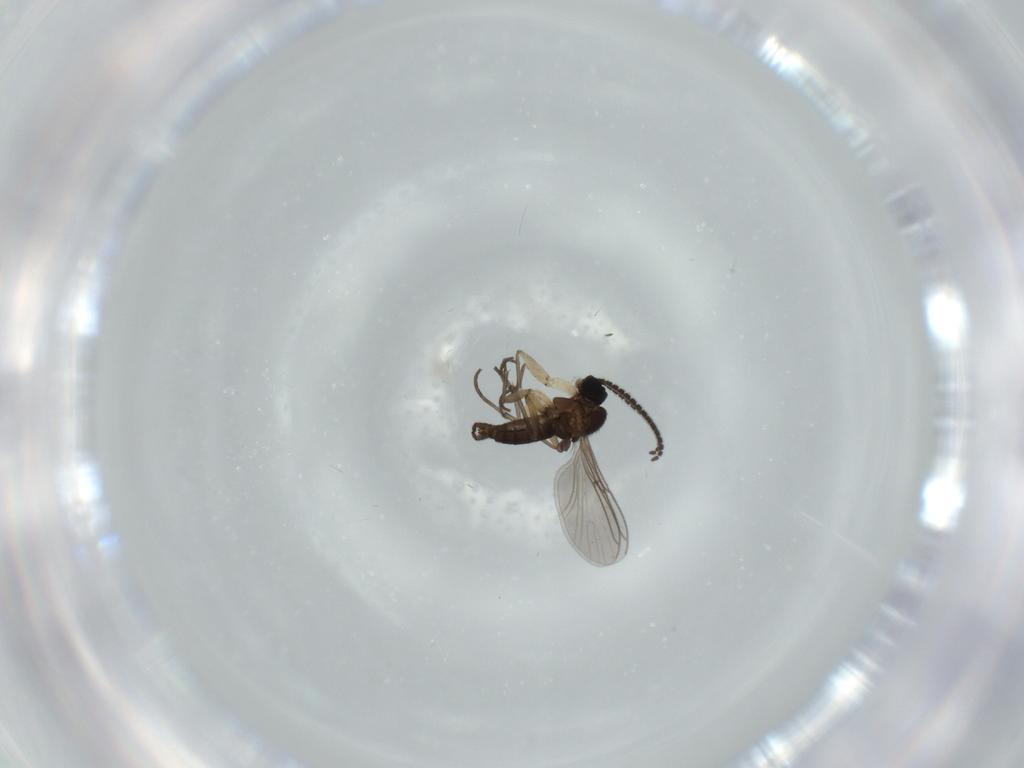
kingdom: Animalia
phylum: Arthropoda
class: Insecta
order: Diptera
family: Sciaridae
